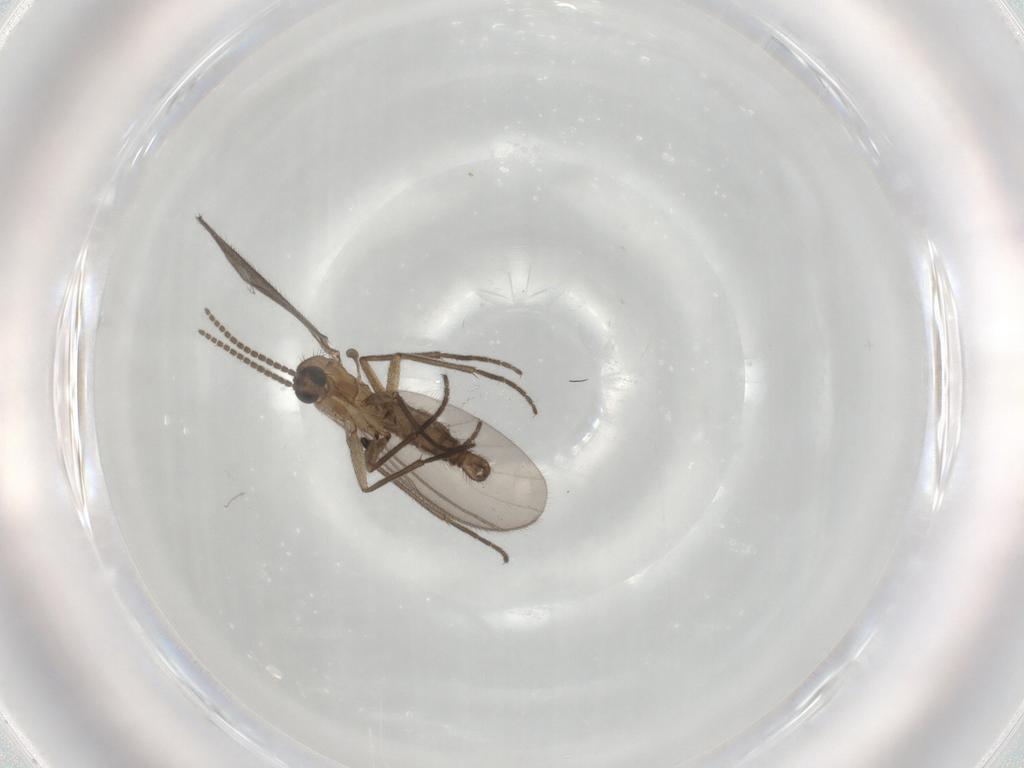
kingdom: Animalia
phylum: Arthropoda
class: Insecta
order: Diptera
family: Sciaridae
